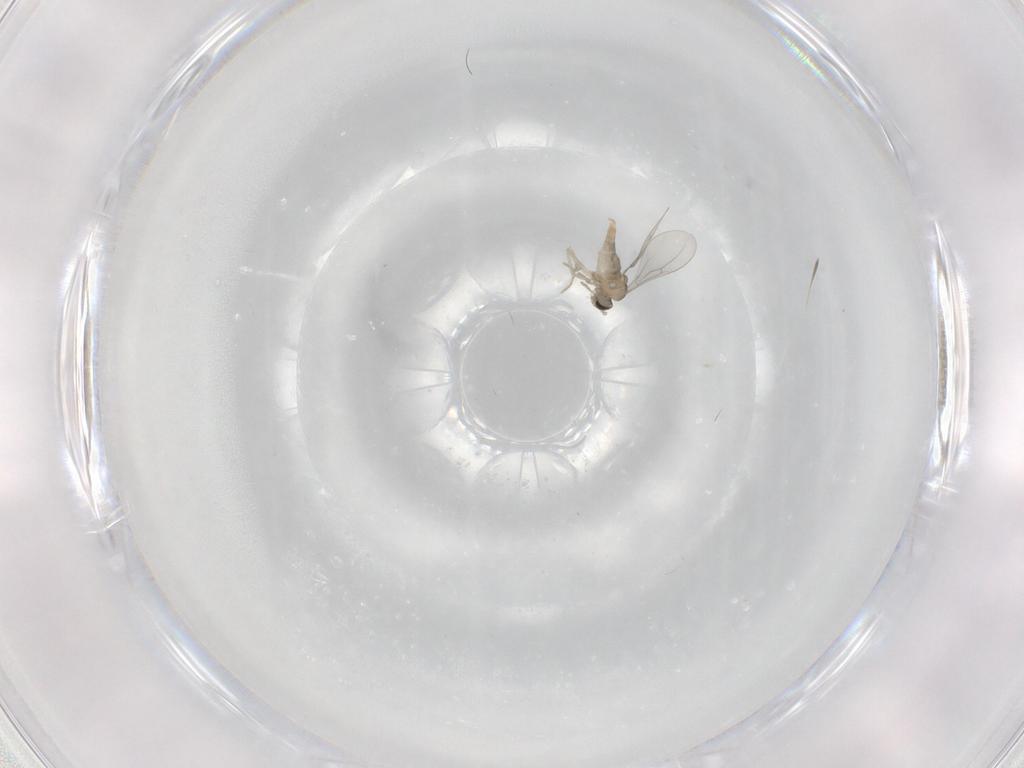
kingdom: Animalia
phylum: Arthropoda
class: Insecta
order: Diptera
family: Cecidomyiidae
